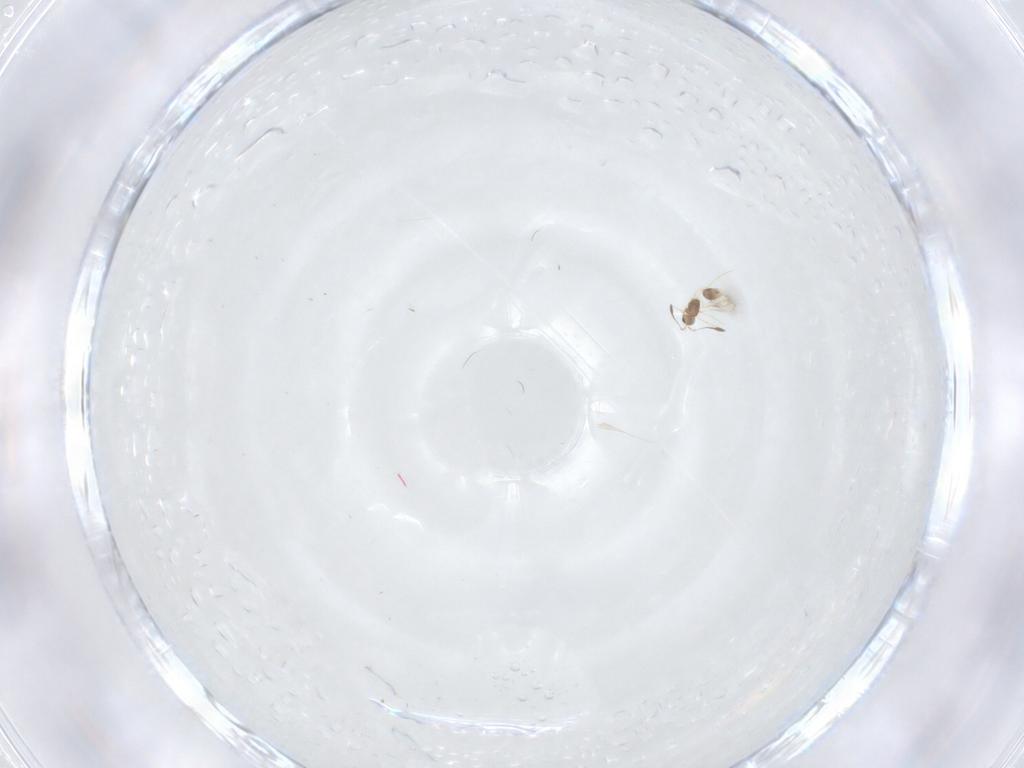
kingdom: Animalia
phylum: Arthropoda
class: Insecta
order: Hymenoptera
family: Mymarommatidae
